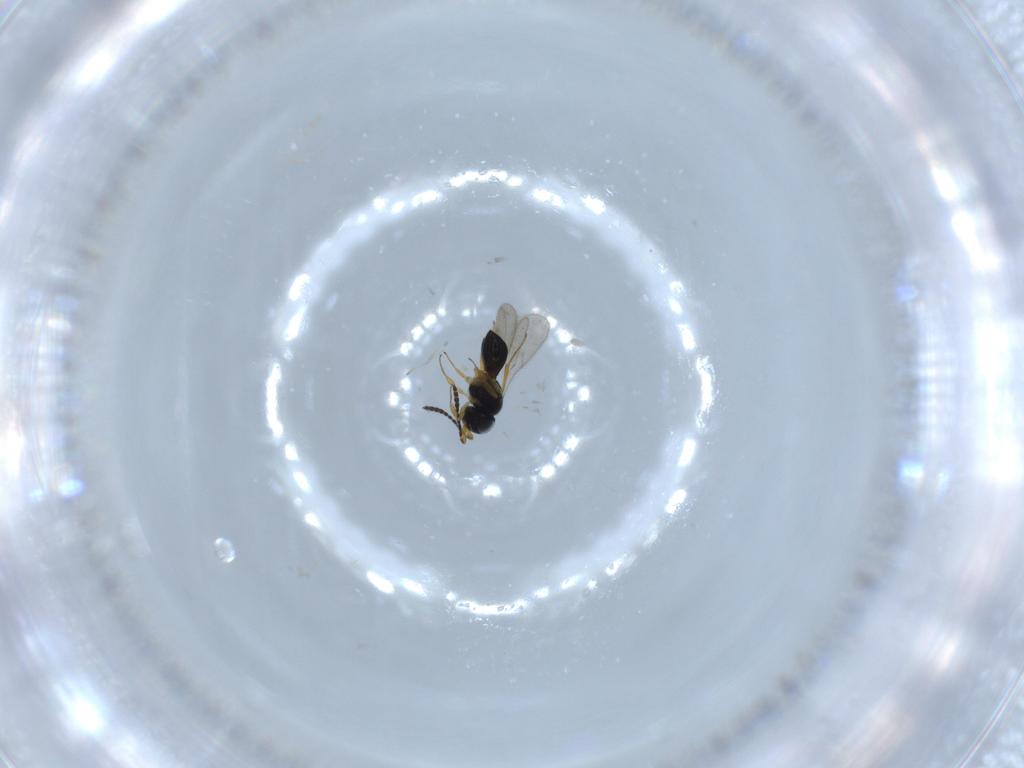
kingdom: Animalia
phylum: Arthropoda
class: Insecta
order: Hymenoptera
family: Scelionidae
